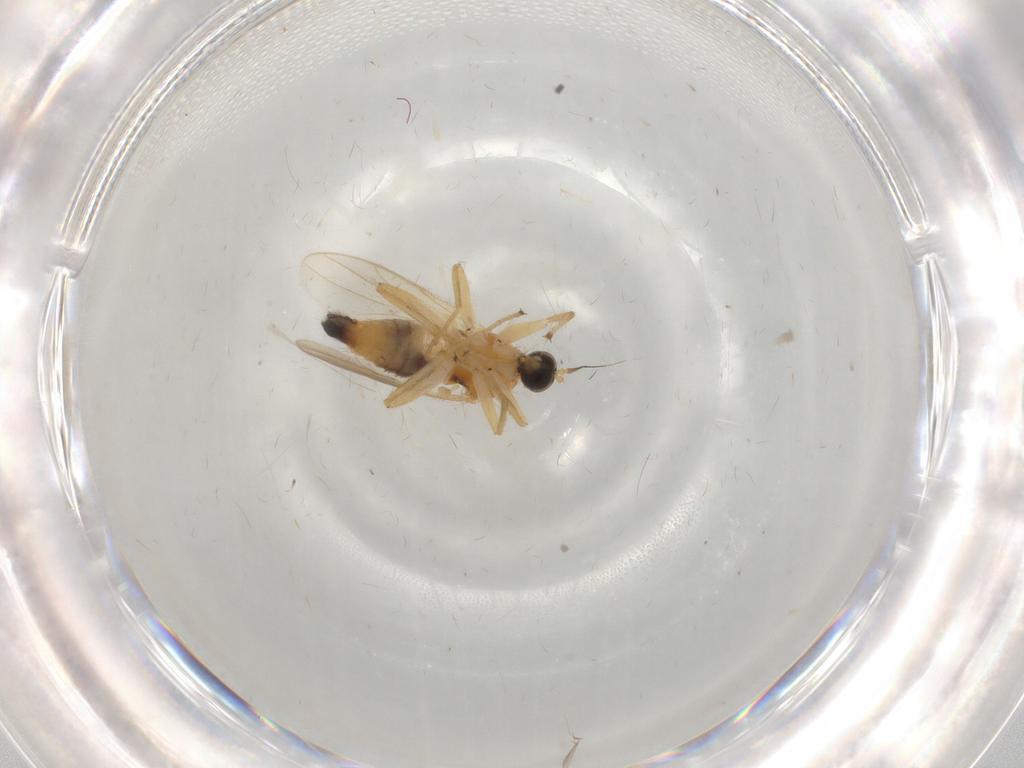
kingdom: Animalia
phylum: Arthropoda
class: Insecta
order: Diptera
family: Hybotidae
